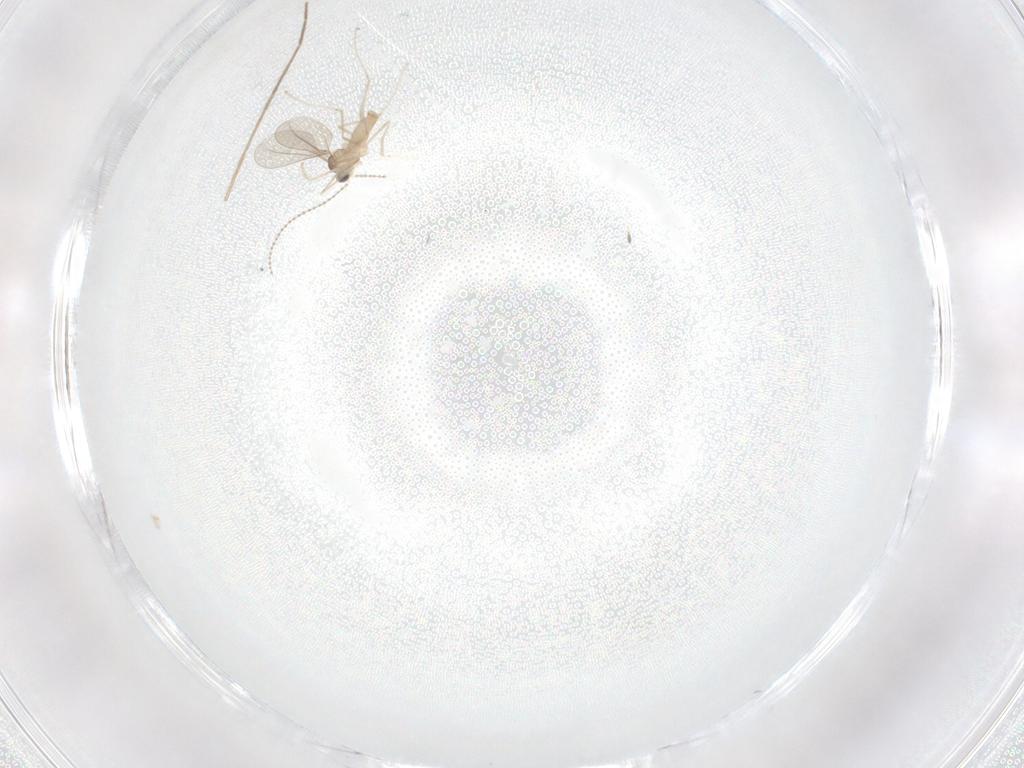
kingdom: Animalia
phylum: Arthropoda
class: Insecta
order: Diptera
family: Cecidomyiidae
